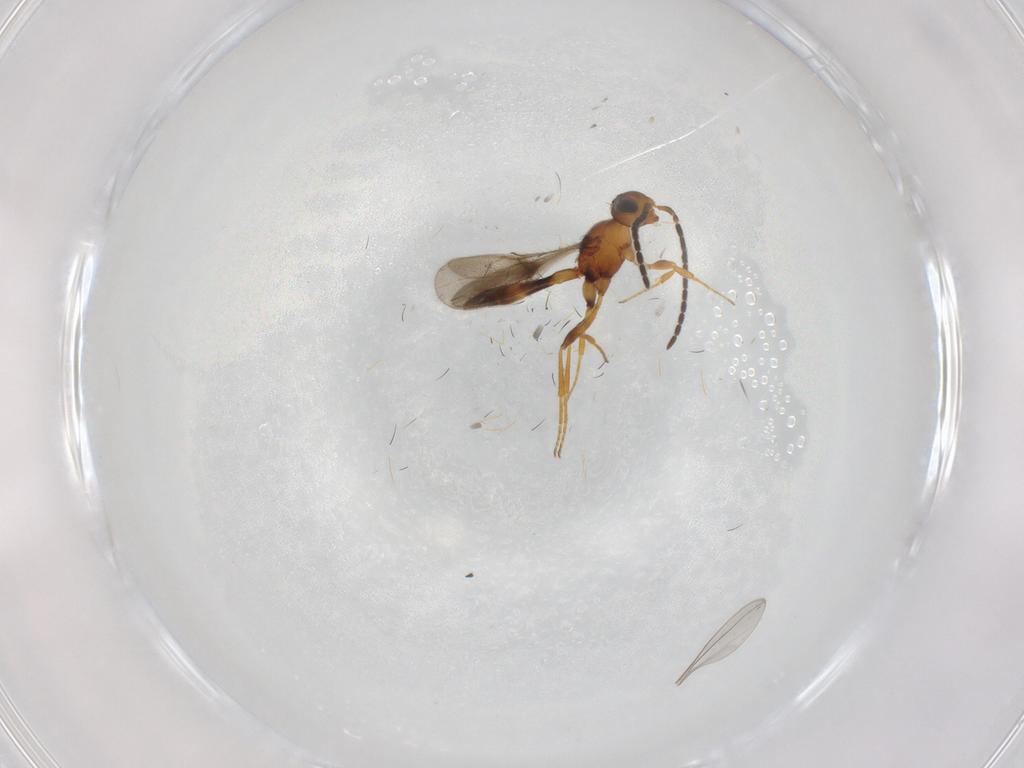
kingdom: Animalia
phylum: Arthropoda
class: Insecta
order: Hymenoptera
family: Scelionidae
